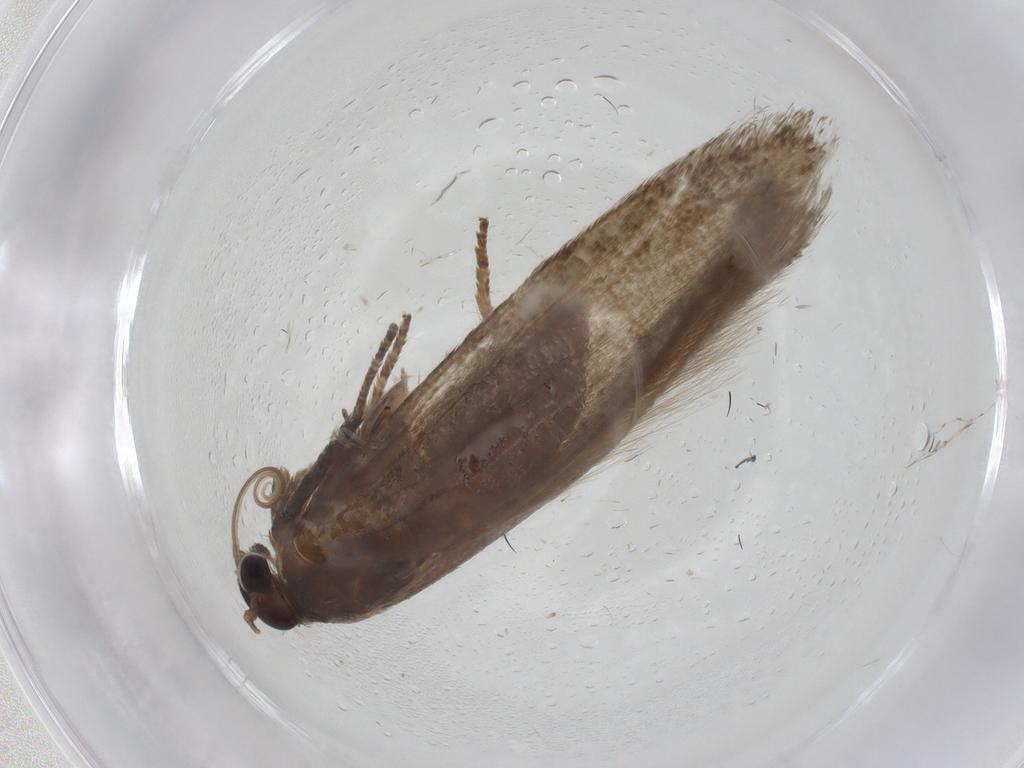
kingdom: Animalia
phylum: Arthropoda
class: Insecta
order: Lepidoptera
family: Blastobasidae
